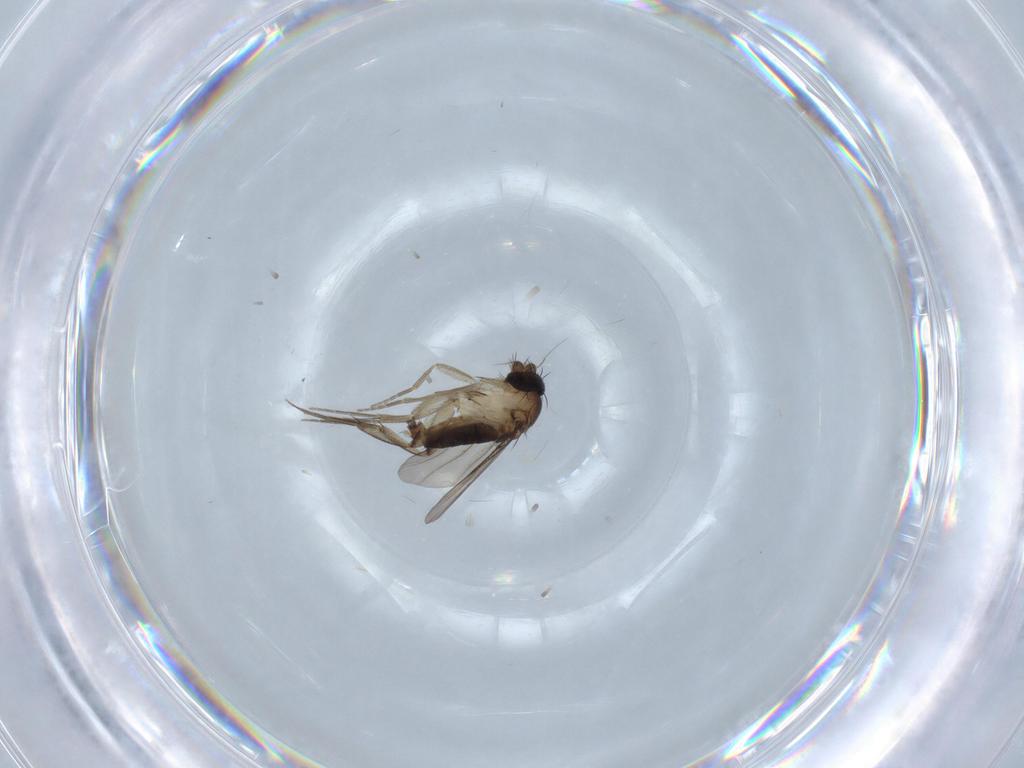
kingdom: Animalia
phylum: Arthropoda
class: Insecta
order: Diptera
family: Phoridae
